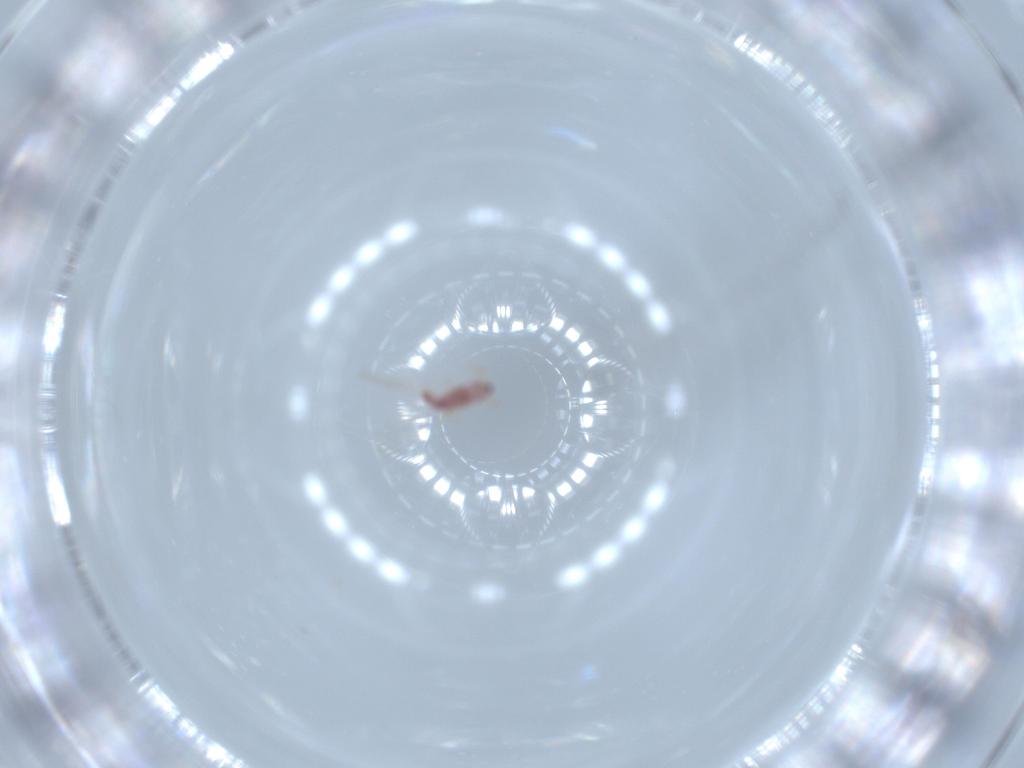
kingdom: Animalia
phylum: Arthropoda
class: Insecta
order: Lepidoptera
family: Psychidae
